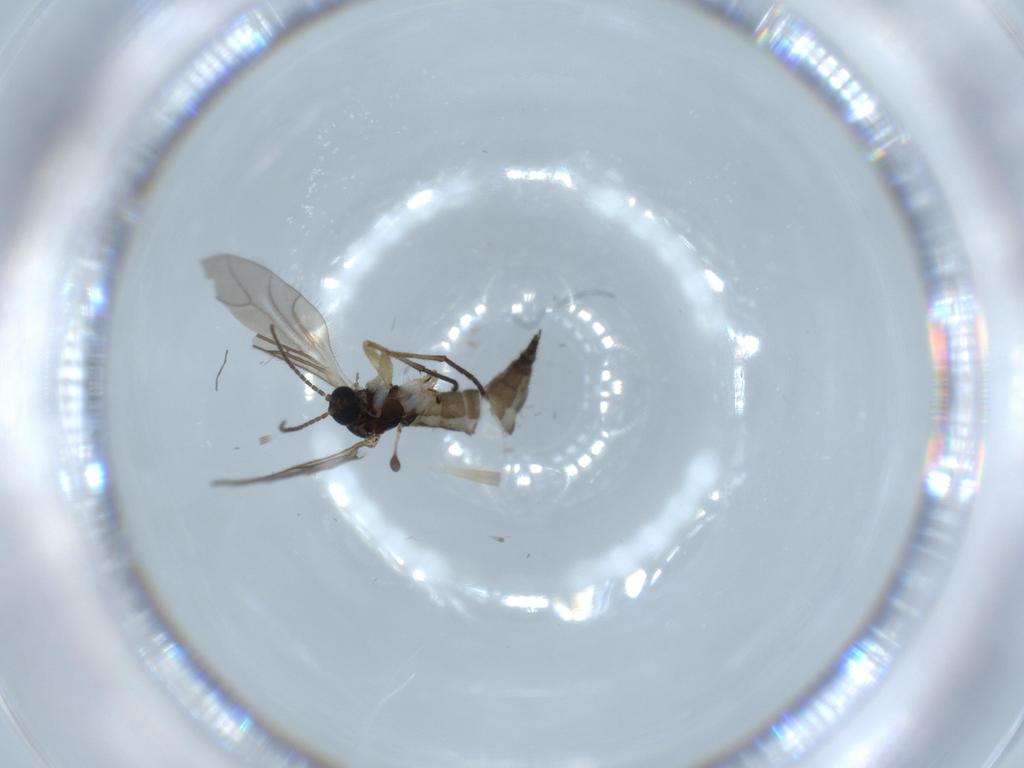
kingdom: Animalia
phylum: Arthropoda
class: Insecta
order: Diptera
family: Sciaridae
